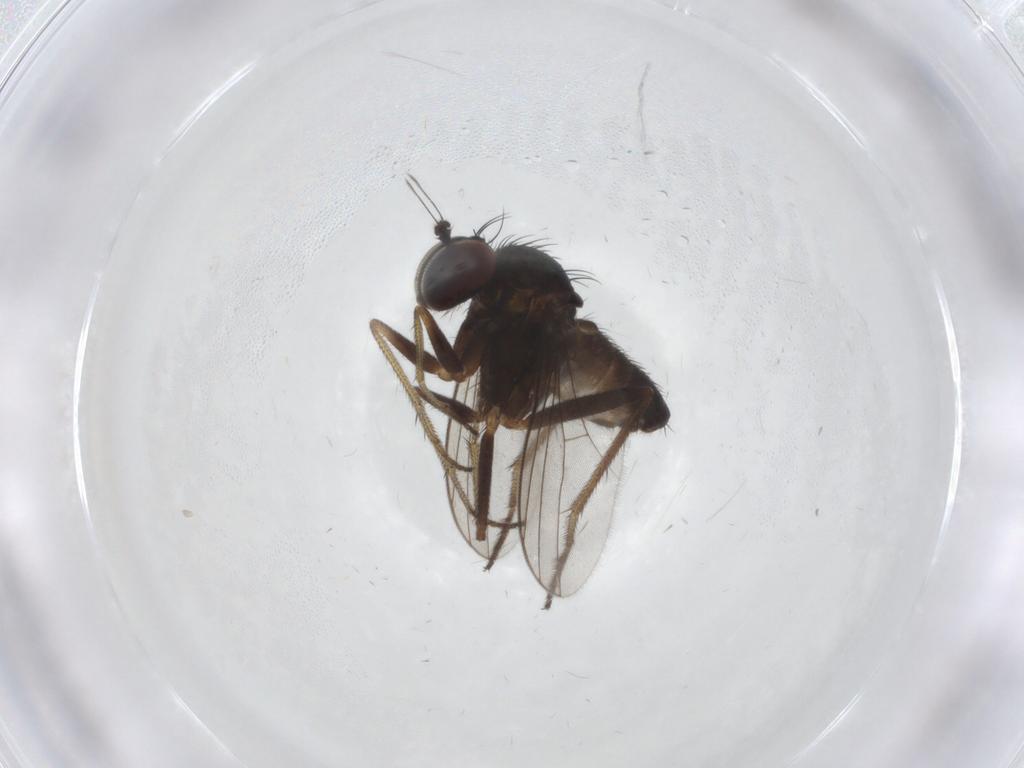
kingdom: Animalia
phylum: Arthropoda
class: Insecta
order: Diptera
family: Dolichopodidae
